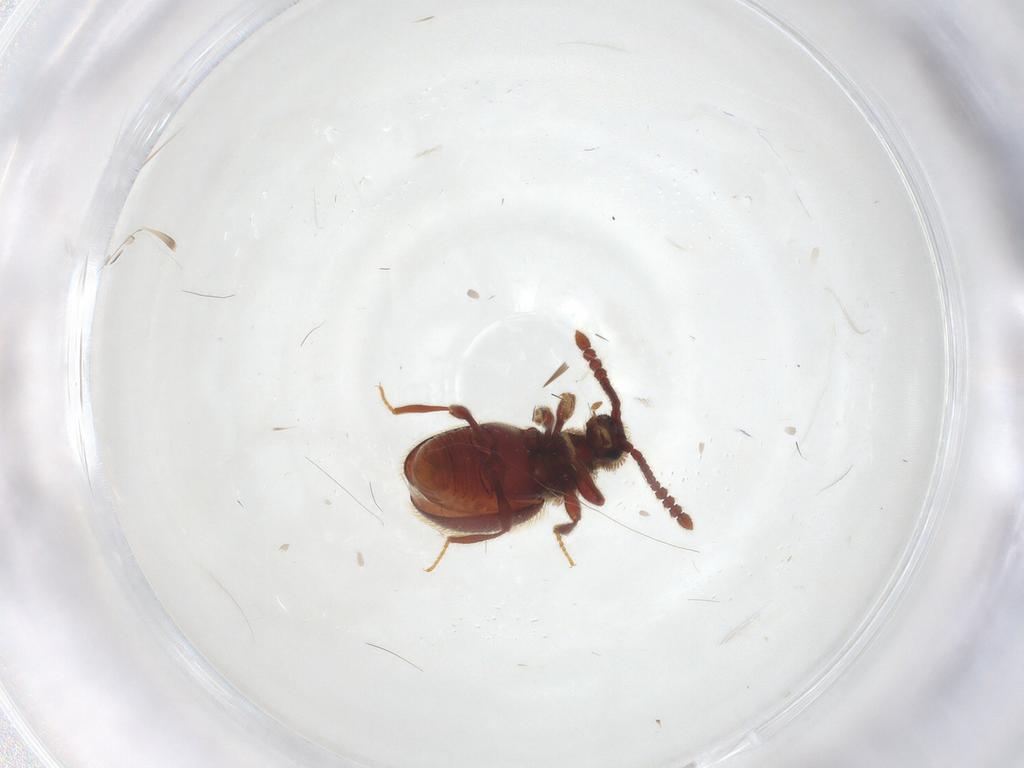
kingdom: Animalia
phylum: Arthropoda
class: Insecta
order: Coleoptera
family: Staphylinidae
